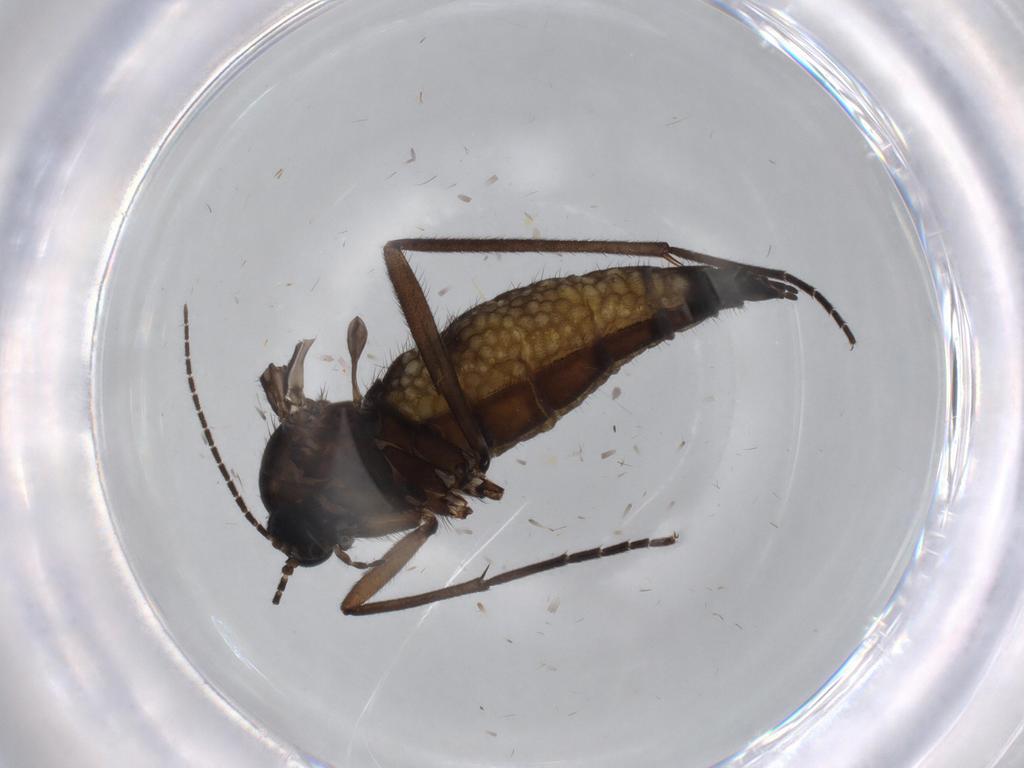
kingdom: Animalia
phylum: Arthropoda
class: Insecta
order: Diptera
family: Sciaridae
